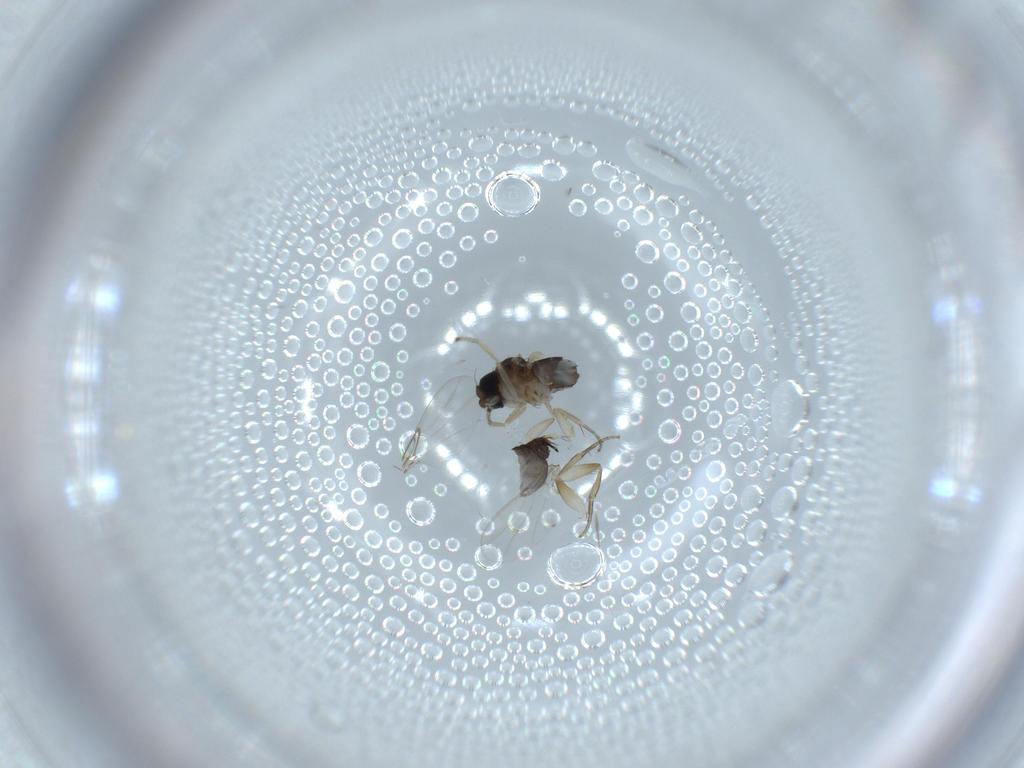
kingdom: Animalia
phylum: Arthropoda
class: Insecta
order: Diptera
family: Phoridae
